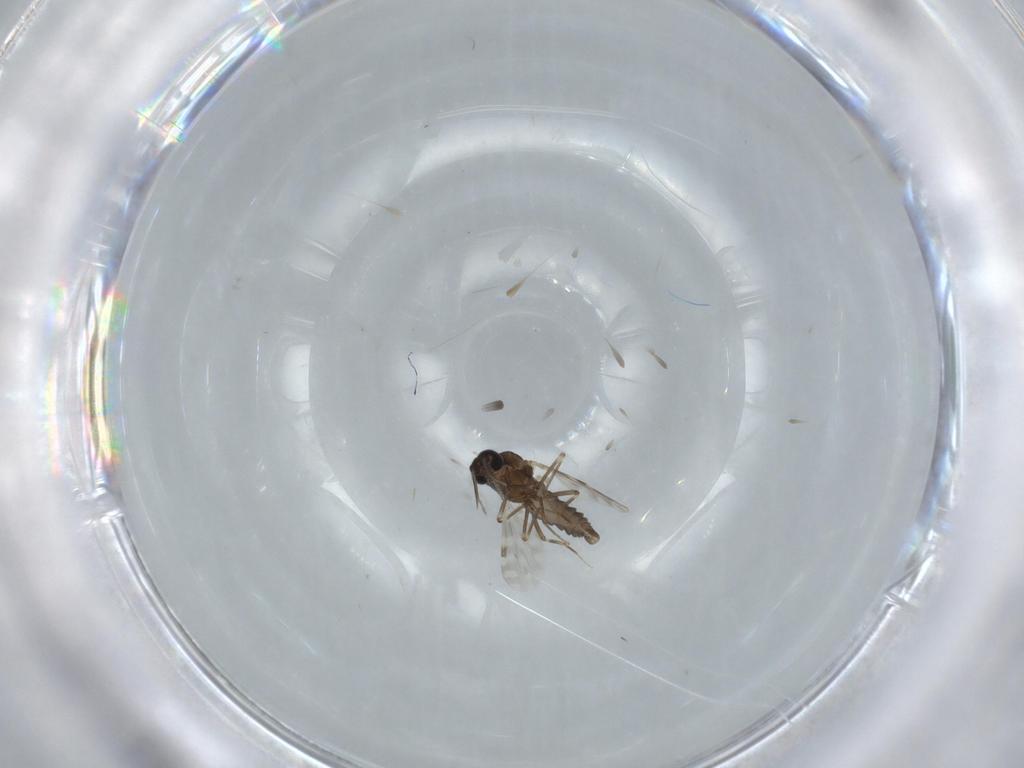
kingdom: Animalia
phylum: Arthropoda
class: Insecta
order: Diptera
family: Ceratopogonidae
